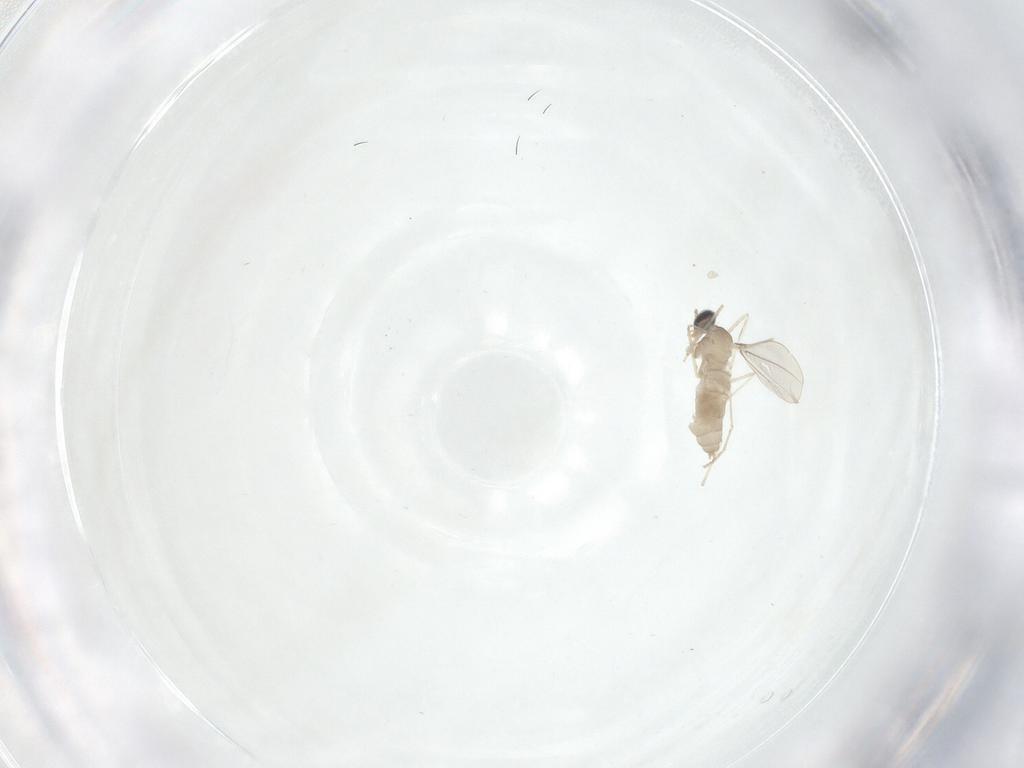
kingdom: Animalia
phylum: Arthropoda
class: Insecta
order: Diptera
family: Cecidomyiidae
